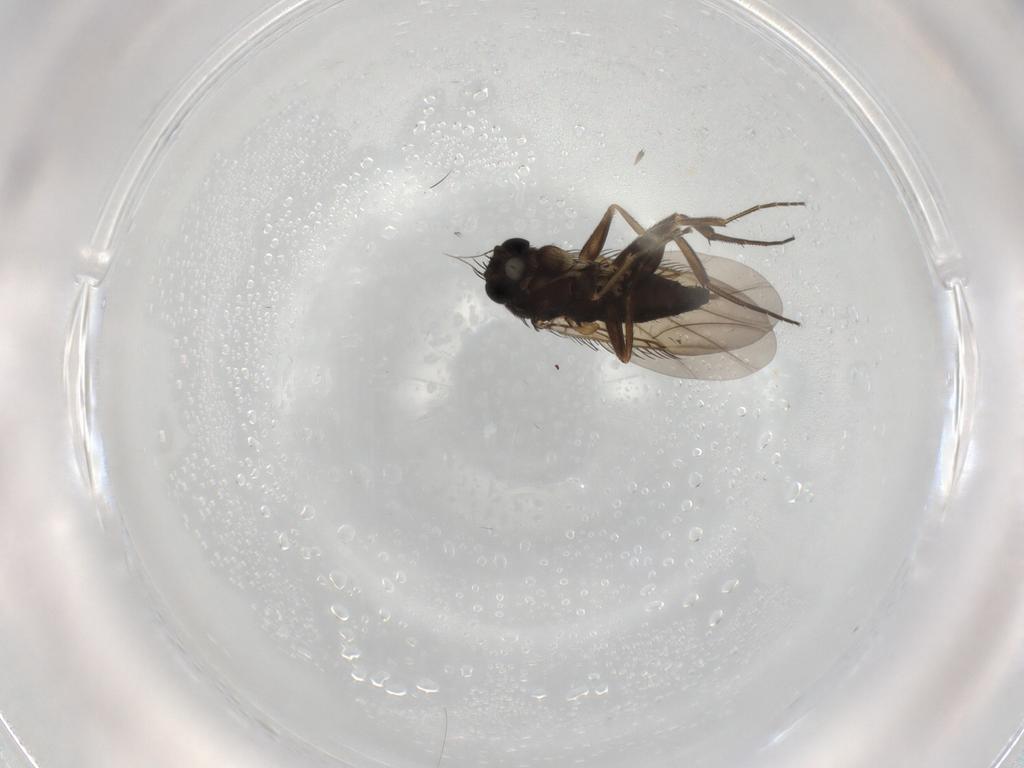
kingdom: Animalia
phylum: Arthropoda
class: Insecta
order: Diptera
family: Phoridae
